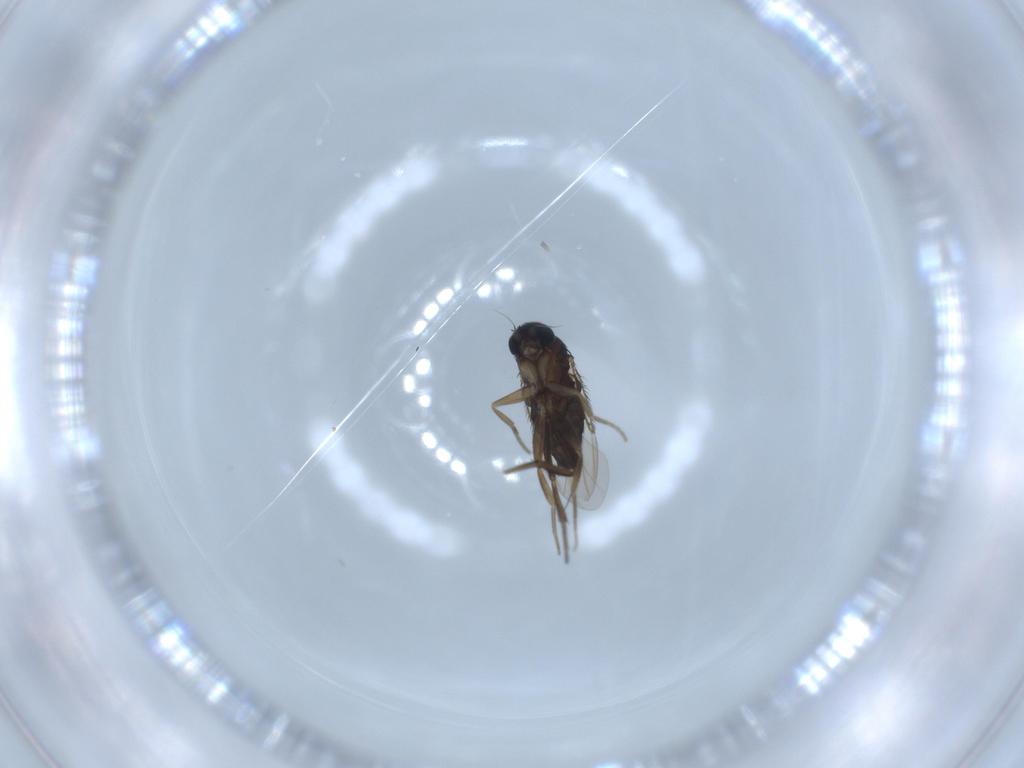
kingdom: Animalia
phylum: Arthropoda
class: Insecta
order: Diptera
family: Phoridae
